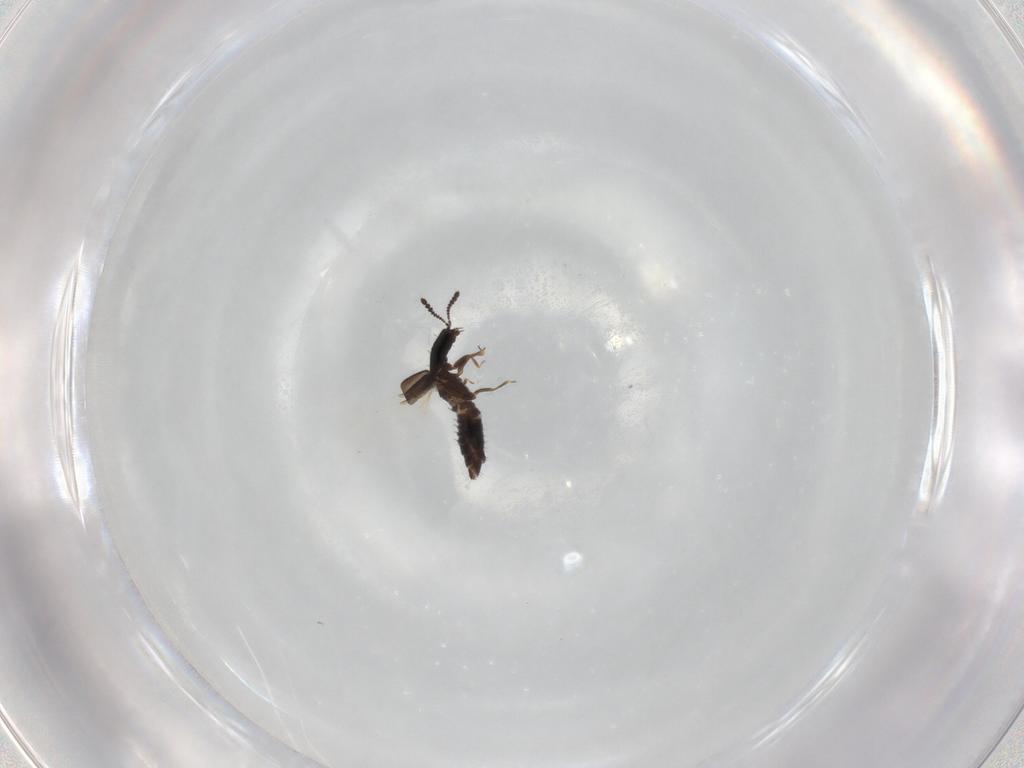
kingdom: Animalia
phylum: Arthropoda
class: Insecta
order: Coleoptera
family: Staphylinidae
